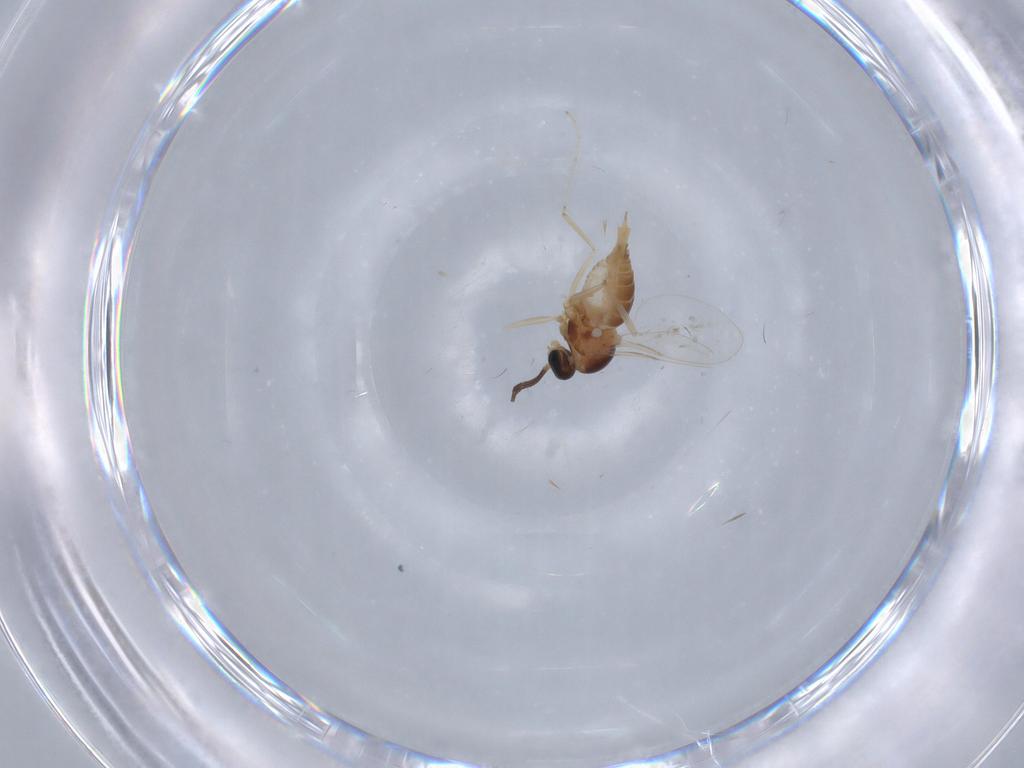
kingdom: Animalia
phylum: Arthropoda
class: Insecta
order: Diptera
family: Cecidomyiidae
